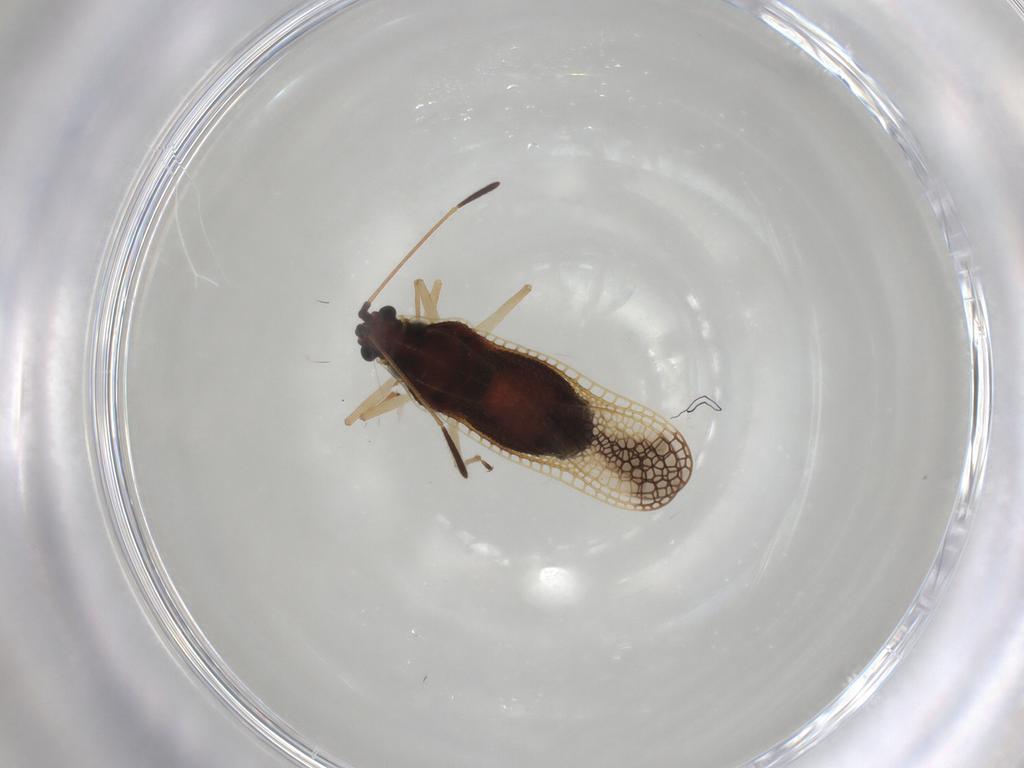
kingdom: Animalia
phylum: Arthropoda
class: Insecta
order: Hemiptera
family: Tingidae
